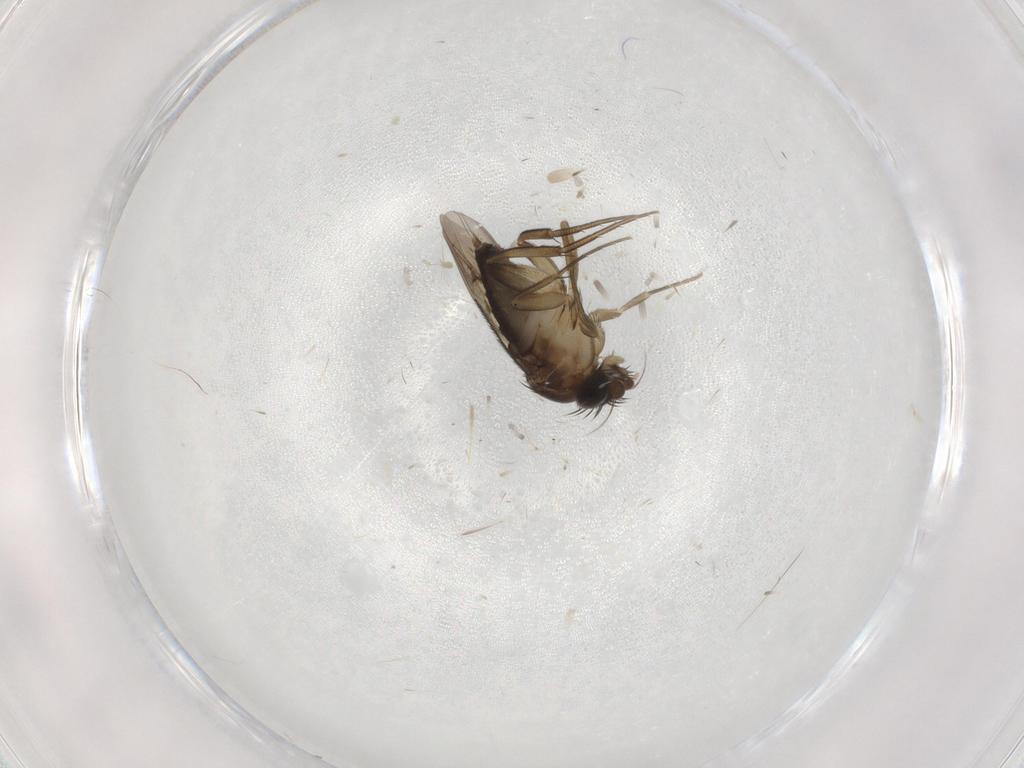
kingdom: Animalia
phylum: Arthropoda
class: Insecta
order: Diptera
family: Phoridae
